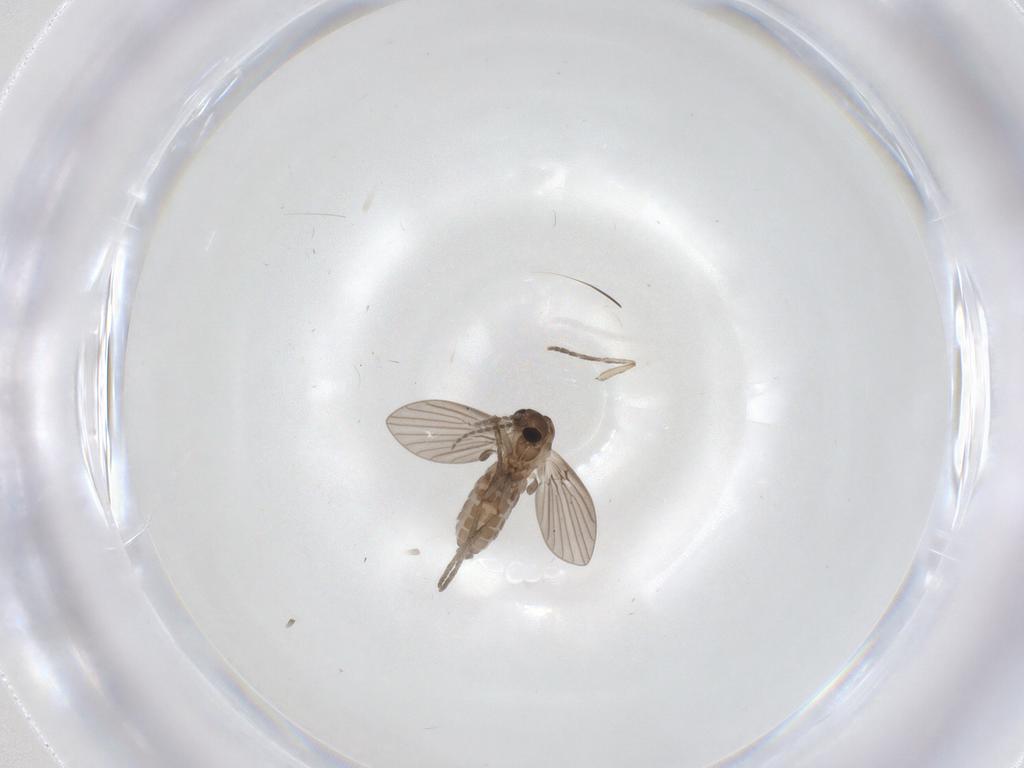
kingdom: Animalia
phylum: Arthropoda
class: Insecta
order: Diptera
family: Psychodidae
